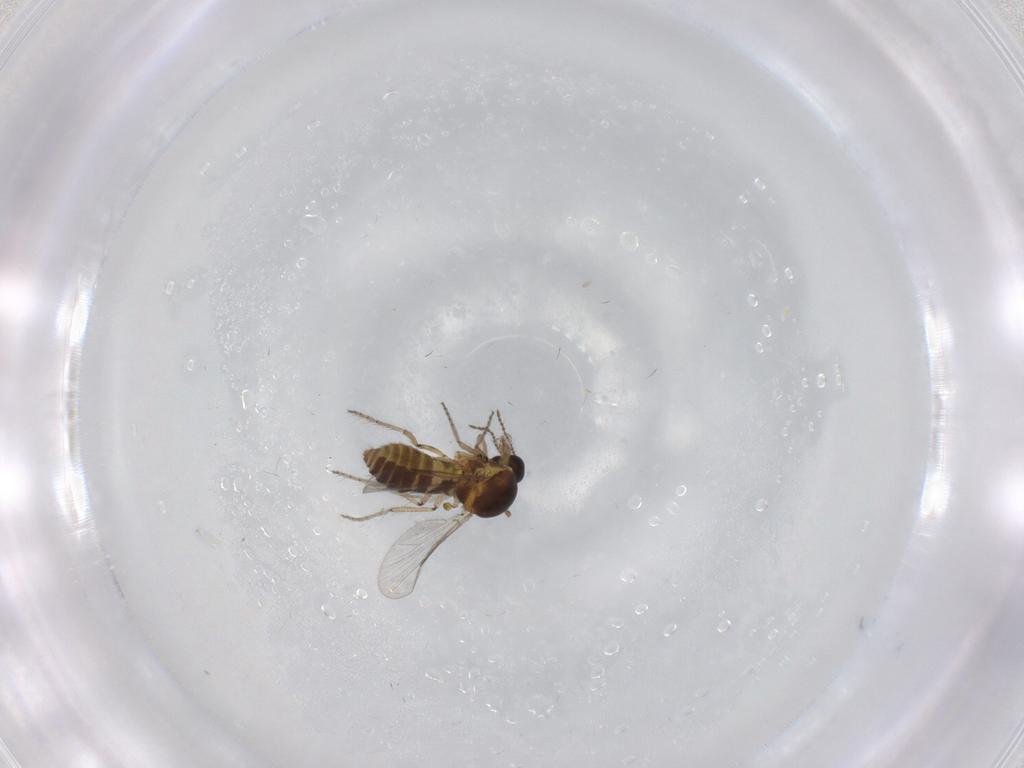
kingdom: Animalia
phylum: Arthropoda
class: Insecta
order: Diptera
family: Ceratopogonidae
